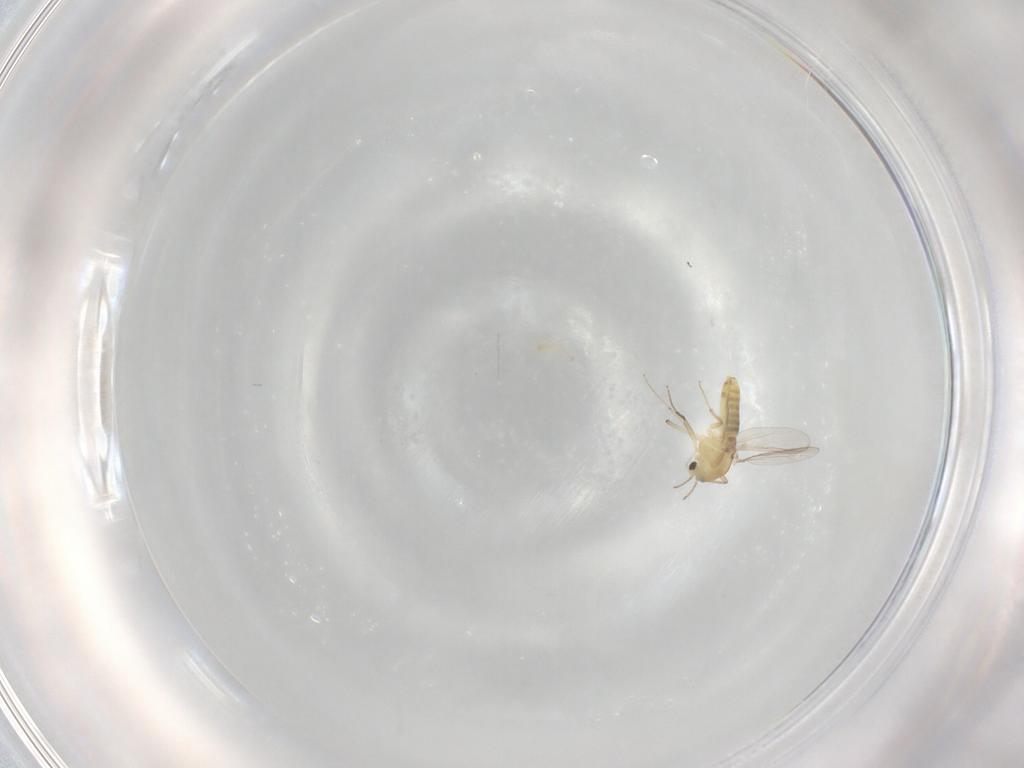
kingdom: Animalia
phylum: Arthropoda
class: Insecta
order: Diptera
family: Chironomidae
